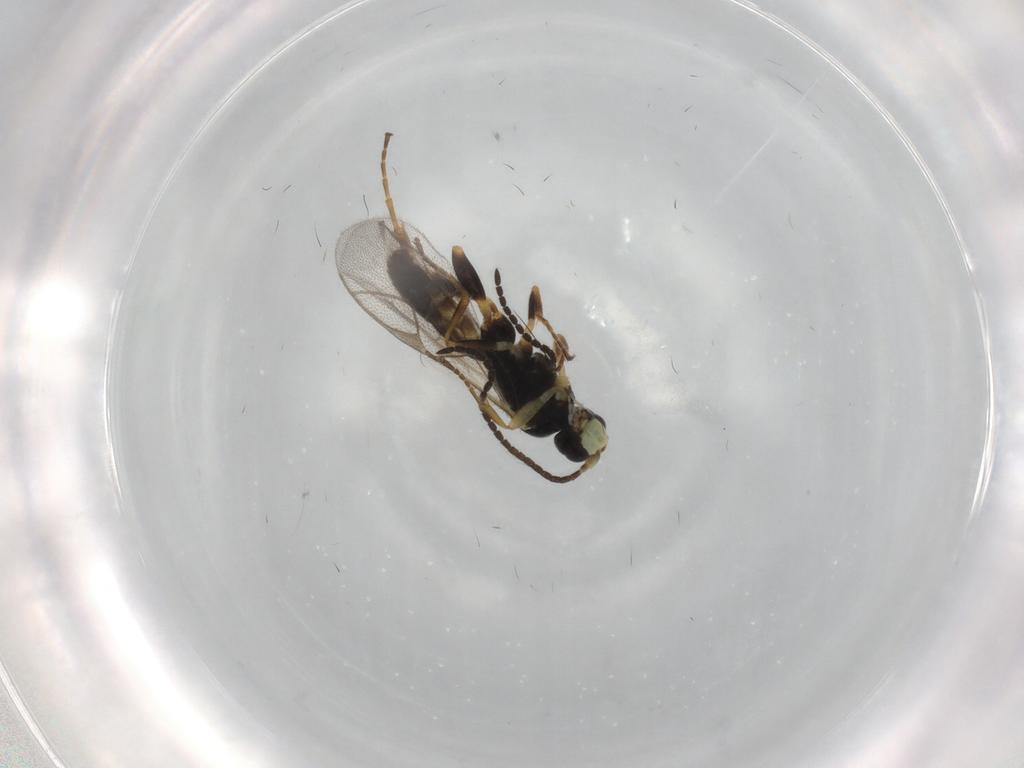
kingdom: Animalia
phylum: Arthropoda
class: Insecta
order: Hymenoptera
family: Ichneumonidae
